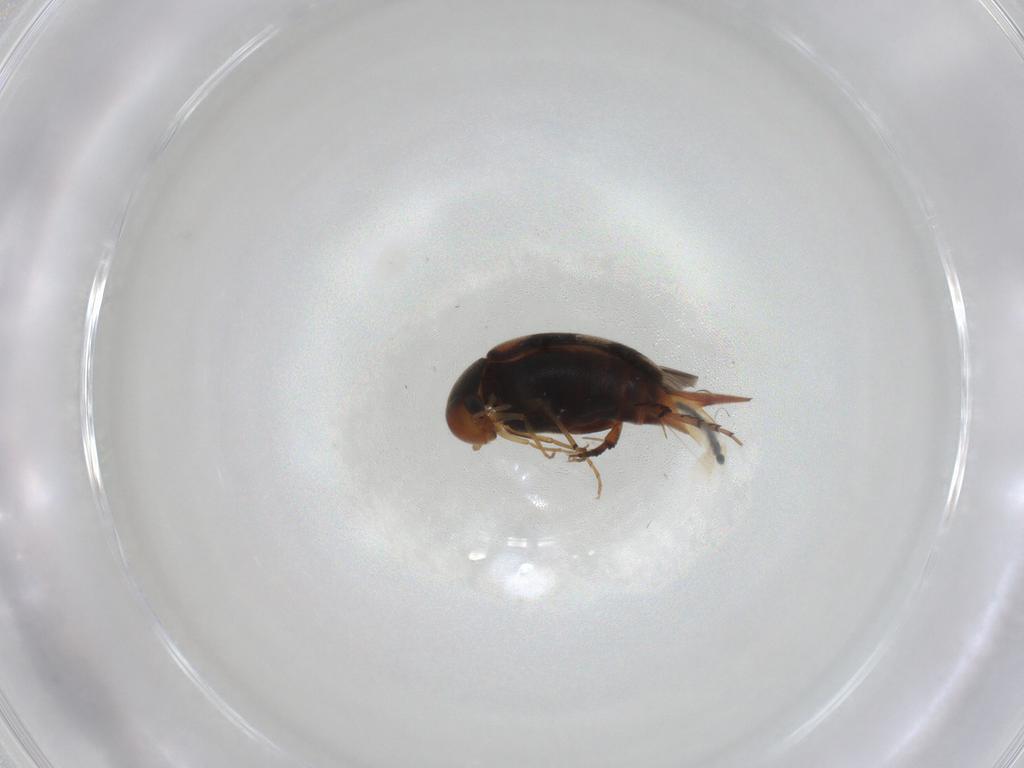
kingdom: Animalia
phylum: Arthropoda
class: Insecta
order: Coleoptera
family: Mordellidae
